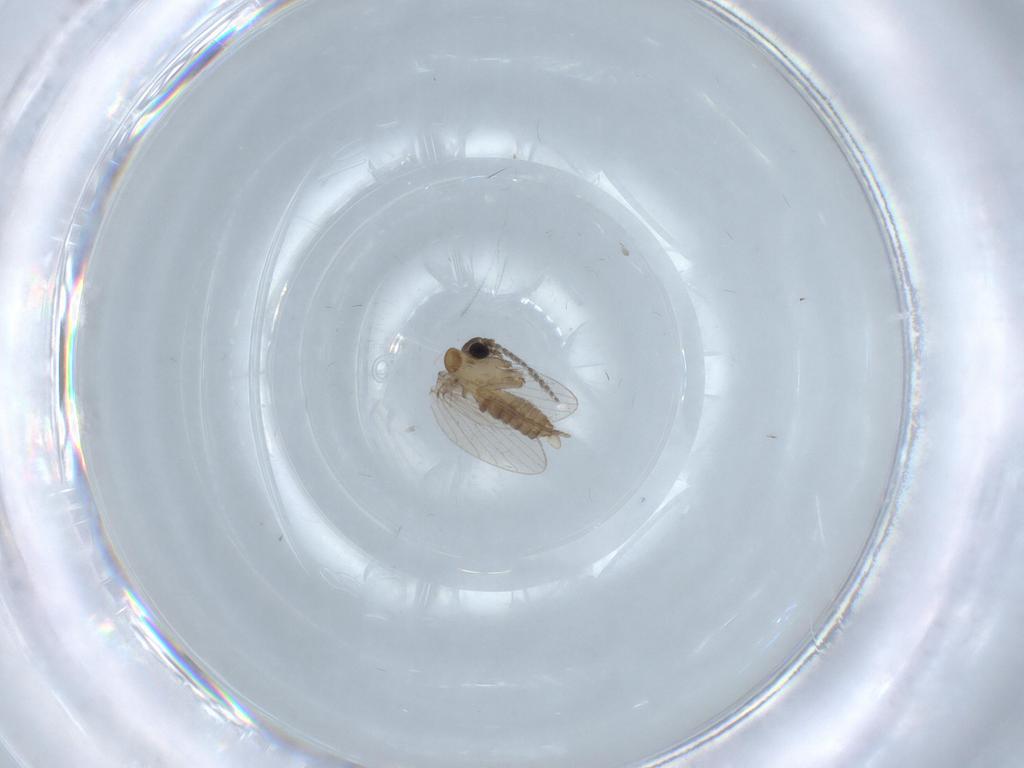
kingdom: Animalia
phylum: Arthropoda
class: Insecta
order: Diptera
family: Psychodidae
